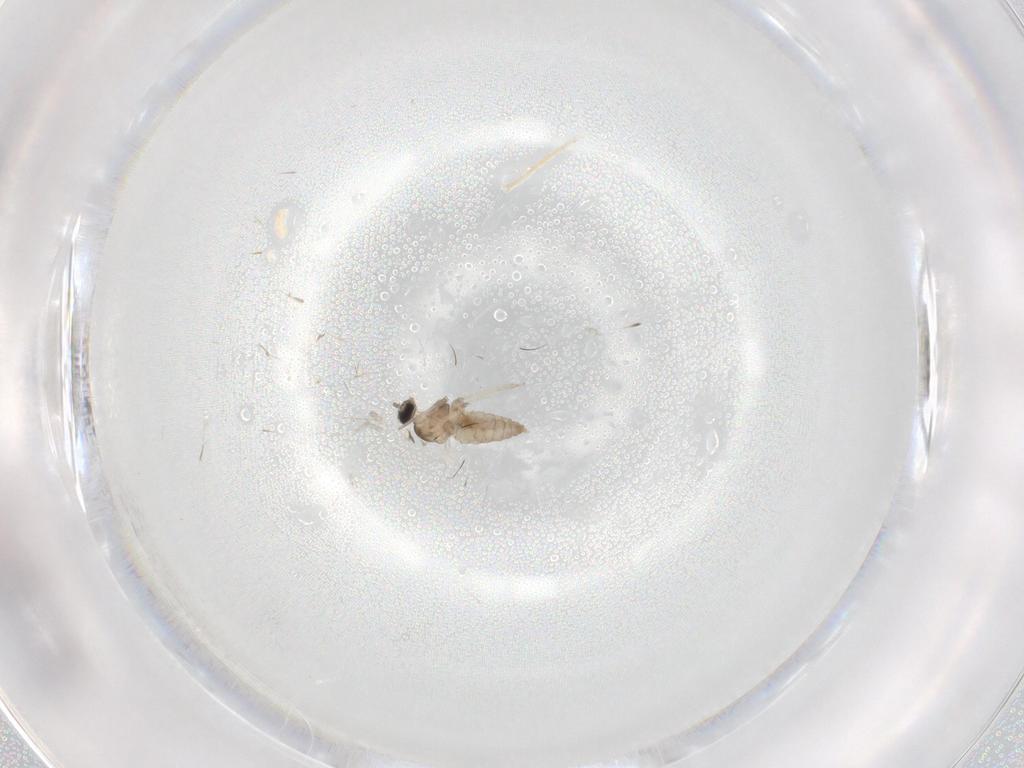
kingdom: Animalia
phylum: Arthropoda
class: Insecta
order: Diptera
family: Cecidomyiidae
